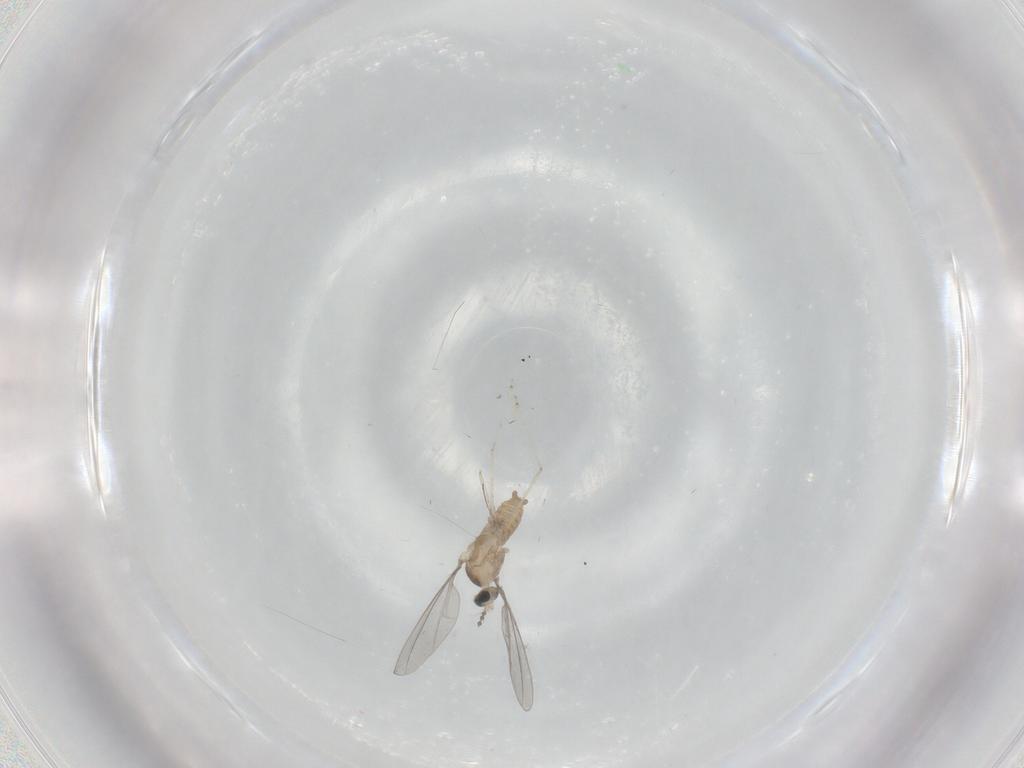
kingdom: Animalia
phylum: Arthropoda
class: Insecta
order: Diptera
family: Cecidomyiidae
